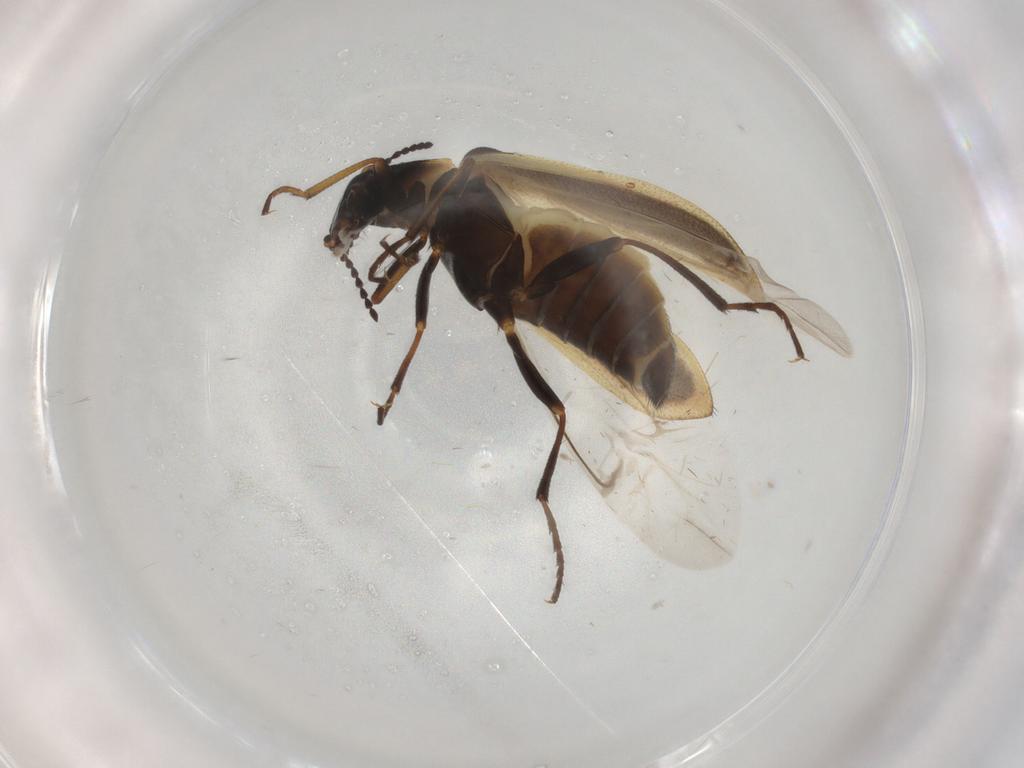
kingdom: Animalia
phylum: Arthropoda
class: Insecta
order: Coleoptera
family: Melyridae
